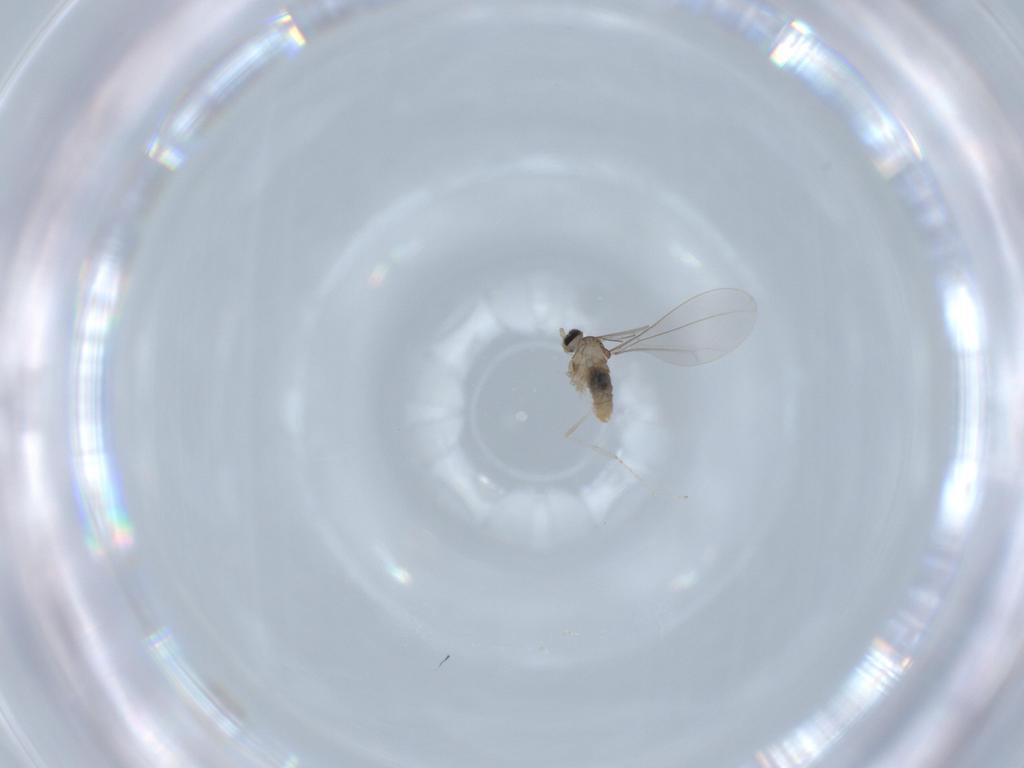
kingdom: Animalia
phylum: Arthropoda
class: Insecta
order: Diptera
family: Cecidomyiidae
